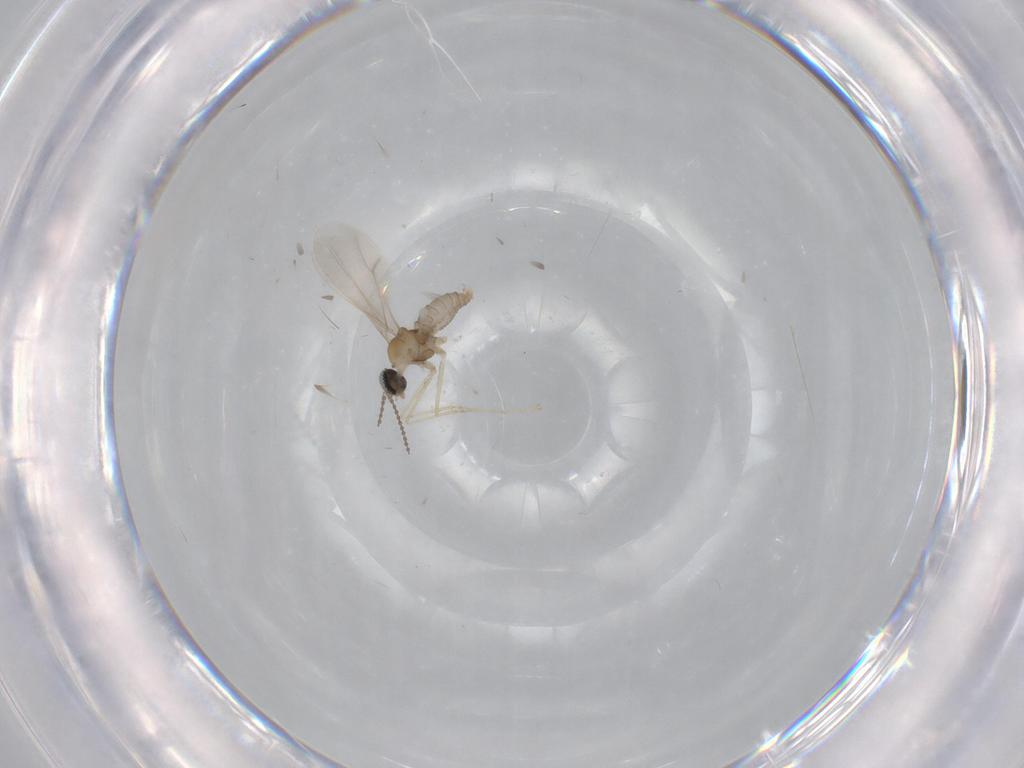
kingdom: Animalia
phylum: Arthropoda
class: Insecta
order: Diptera
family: Cecidomyiidae
